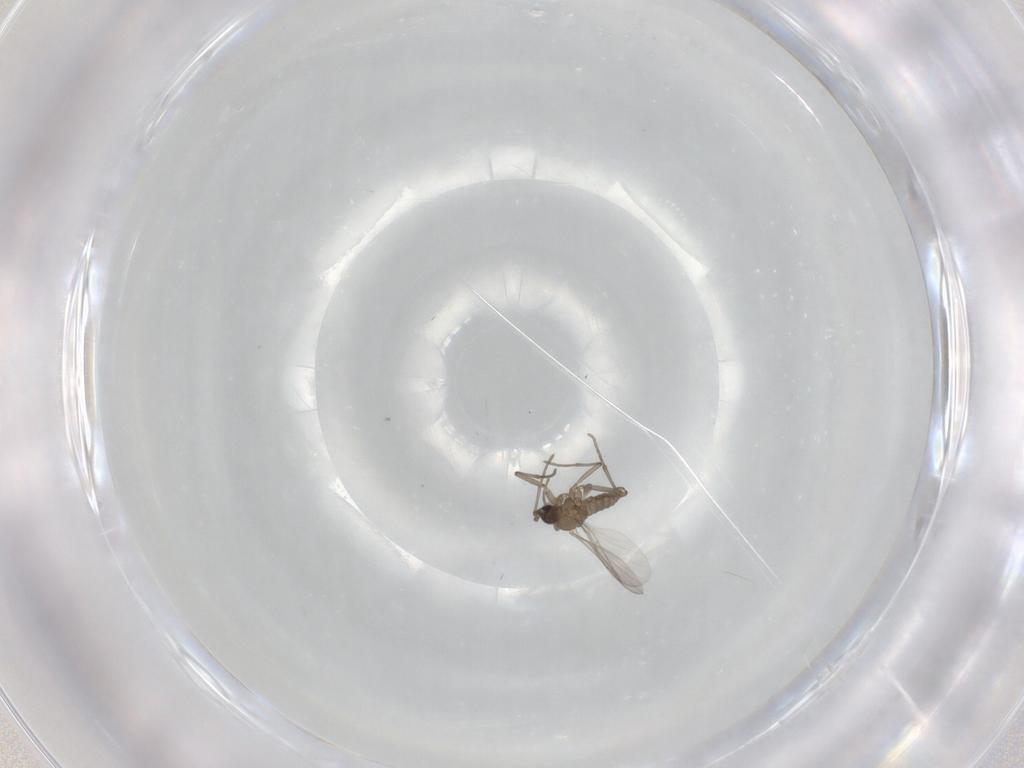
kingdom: Animalia
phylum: Arthropoda
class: Insecta
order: Diptera
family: Sciaridae
